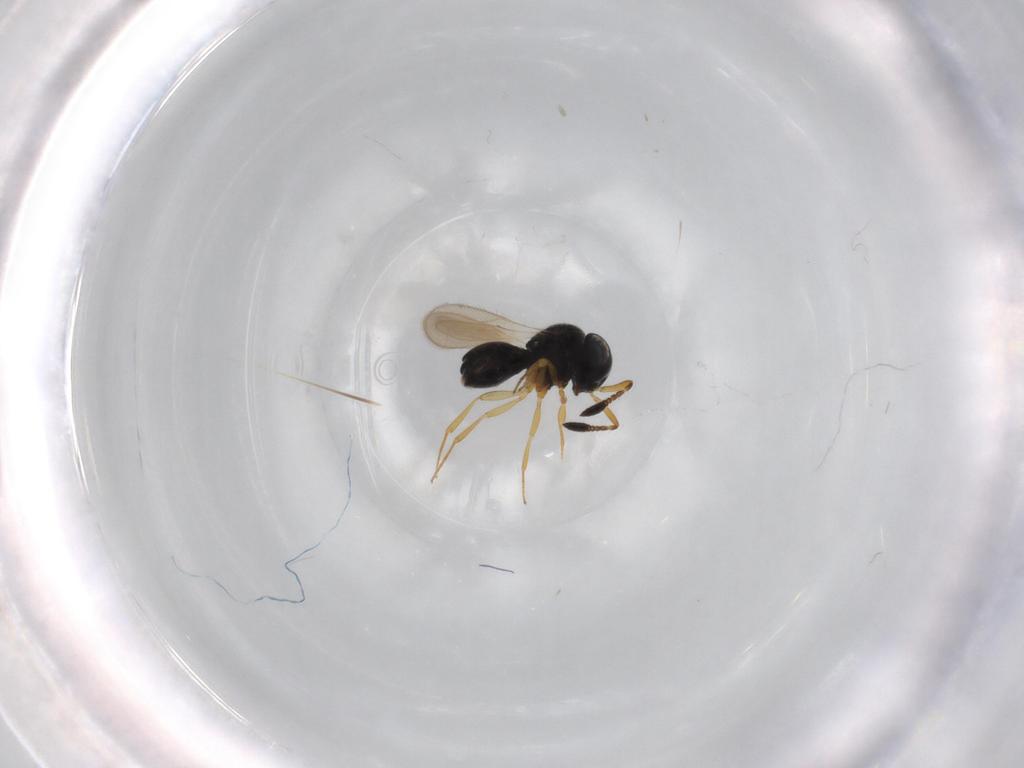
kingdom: Animalia
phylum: Arthropoda
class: Insecta
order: Hymenoptera
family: Scelionidae
